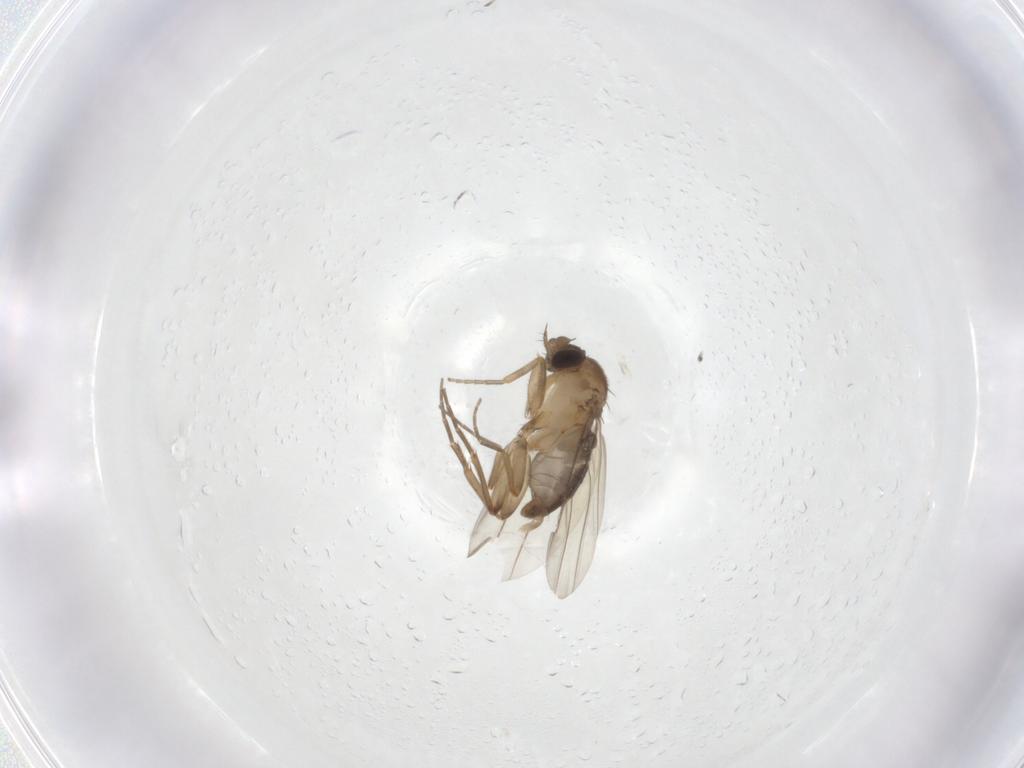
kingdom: Animalia
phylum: Arthropoda
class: Insecta
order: Diptera
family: Phoridae
